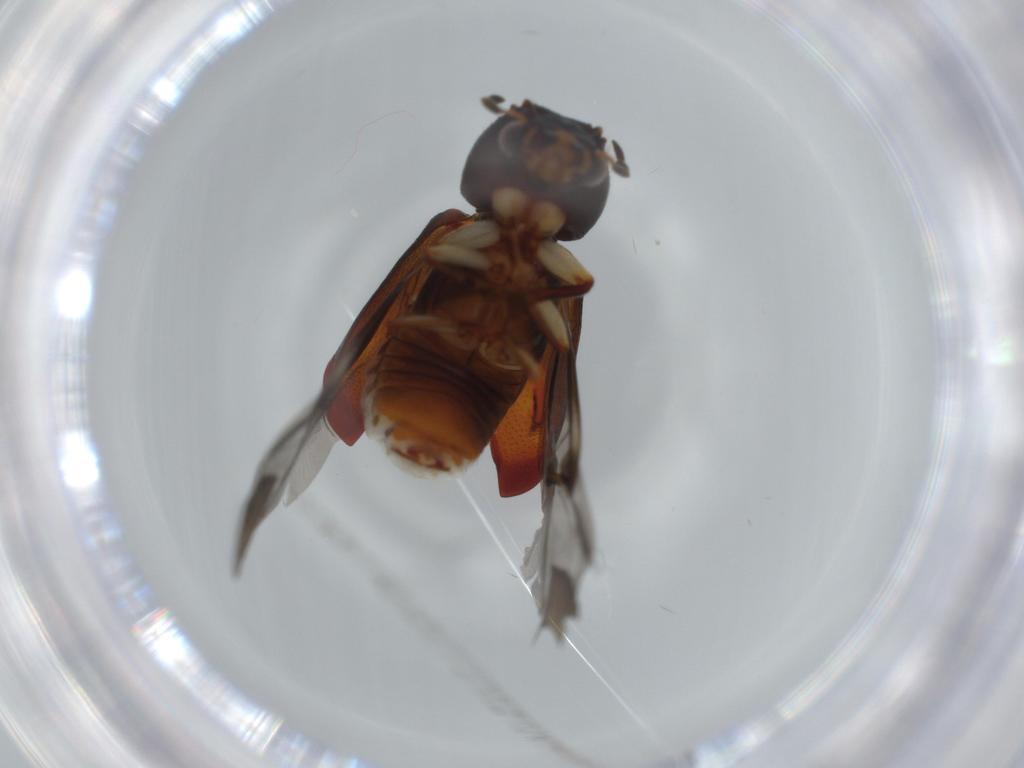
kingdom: Animalia
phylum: Arthropoda
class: Insecta
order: Coleoptera
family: Bostrichidae
